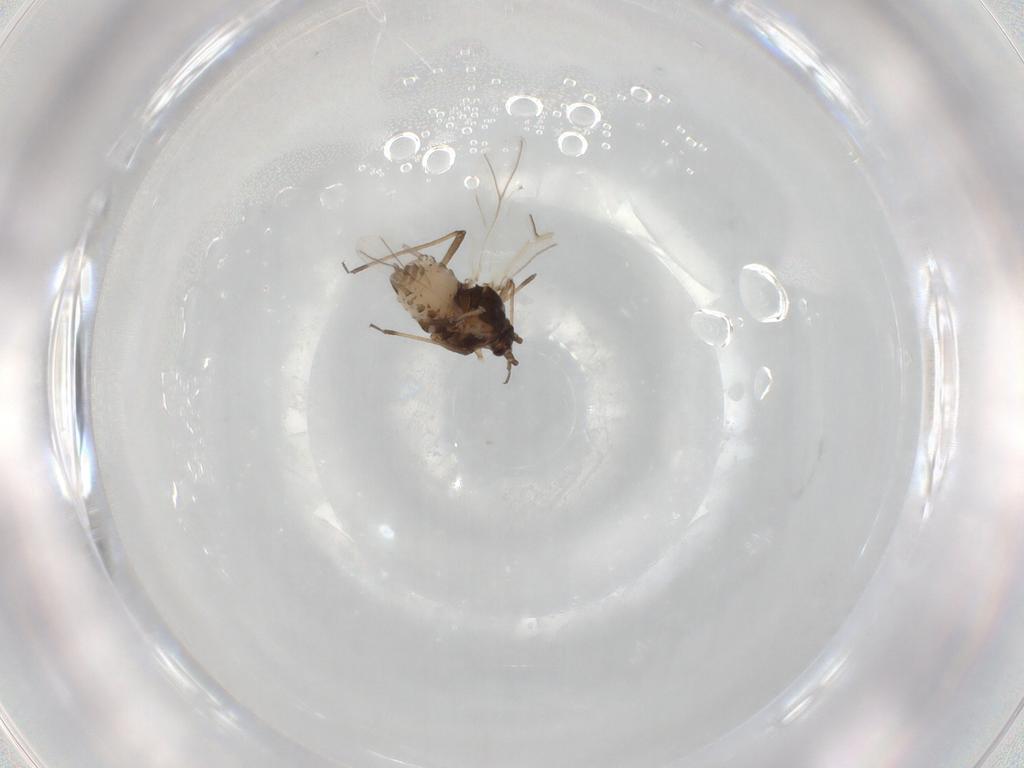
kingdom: Animalia
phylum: Arthropoda
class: Insecta
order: Hemiptera
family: Aphididae
